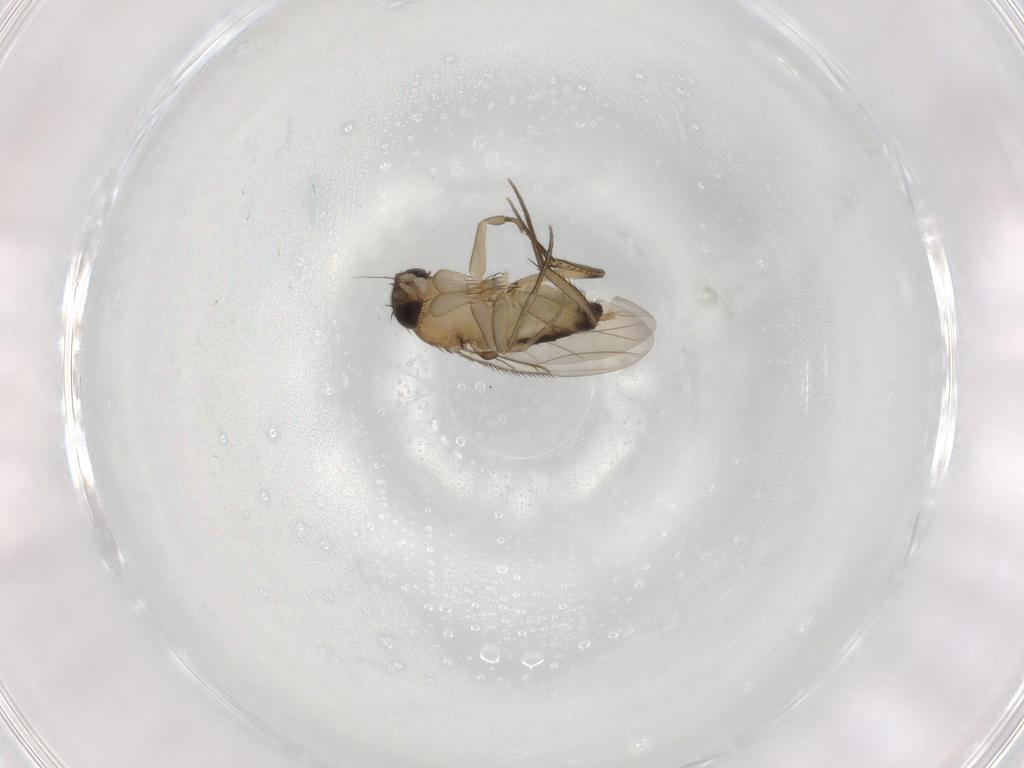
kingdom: Animalia
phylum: Arthropoda
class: Insecta
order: Diptera
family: Phoridae
